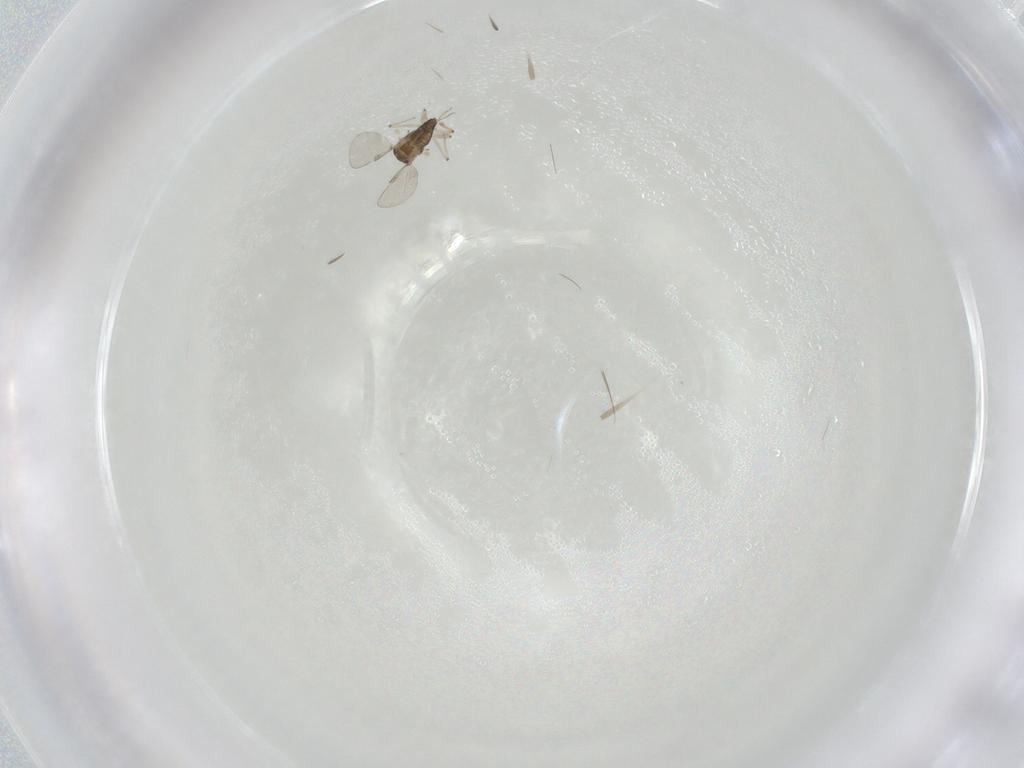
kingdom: Animalia
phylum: Arthropoda
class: Insecta
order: Diptera
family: Chironomidae
